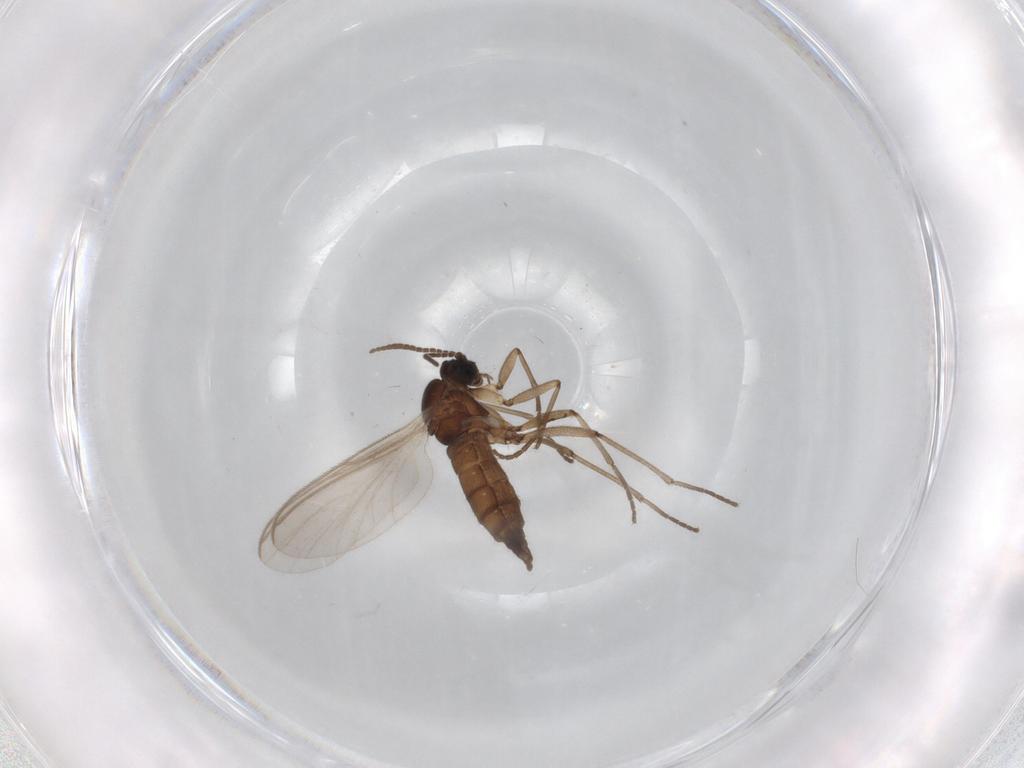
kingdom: Animalia
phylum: Arthropoda
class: Insecta
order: Diptera
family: Sciaridae
